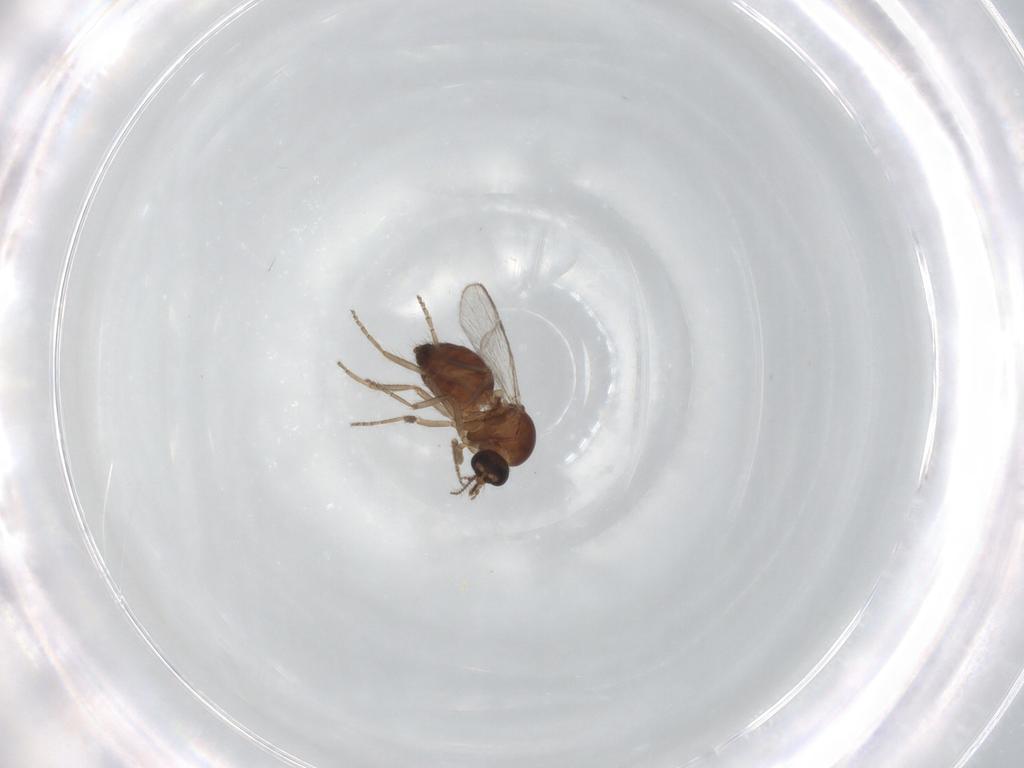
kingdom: Animalia
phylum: Arthropoda
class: Insecta
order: Diptera
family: Ceratopogonidae
